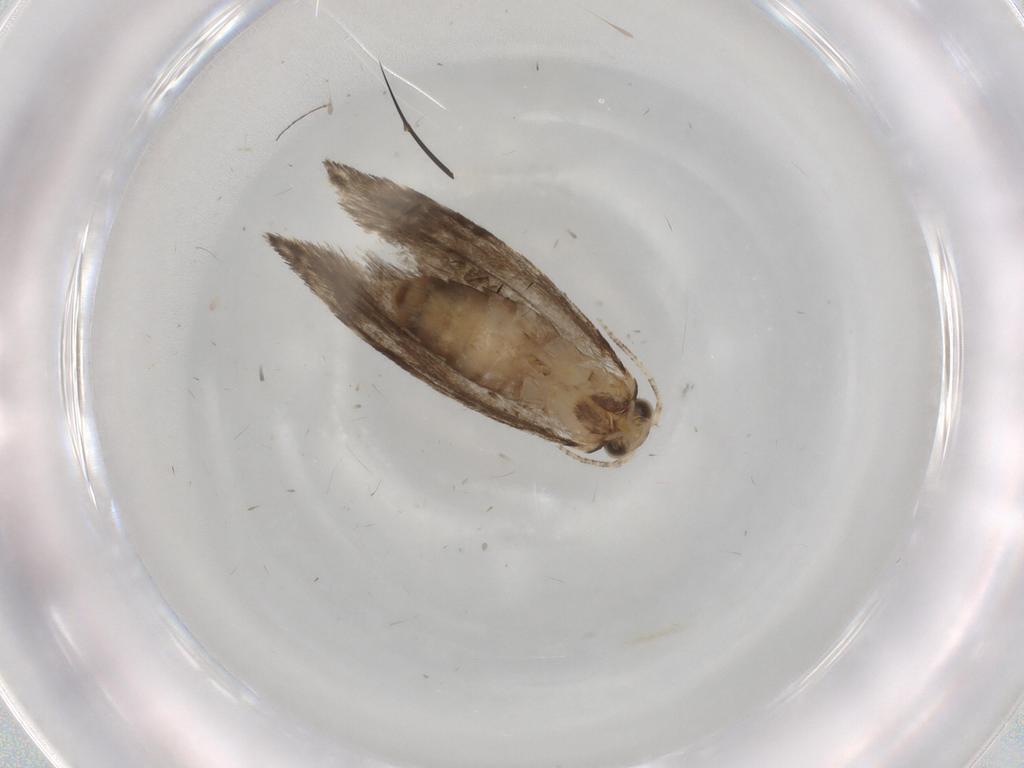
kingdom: Animalia
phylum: Arthropoda
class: Insecta
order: Lepidoptera
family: Tineidae
